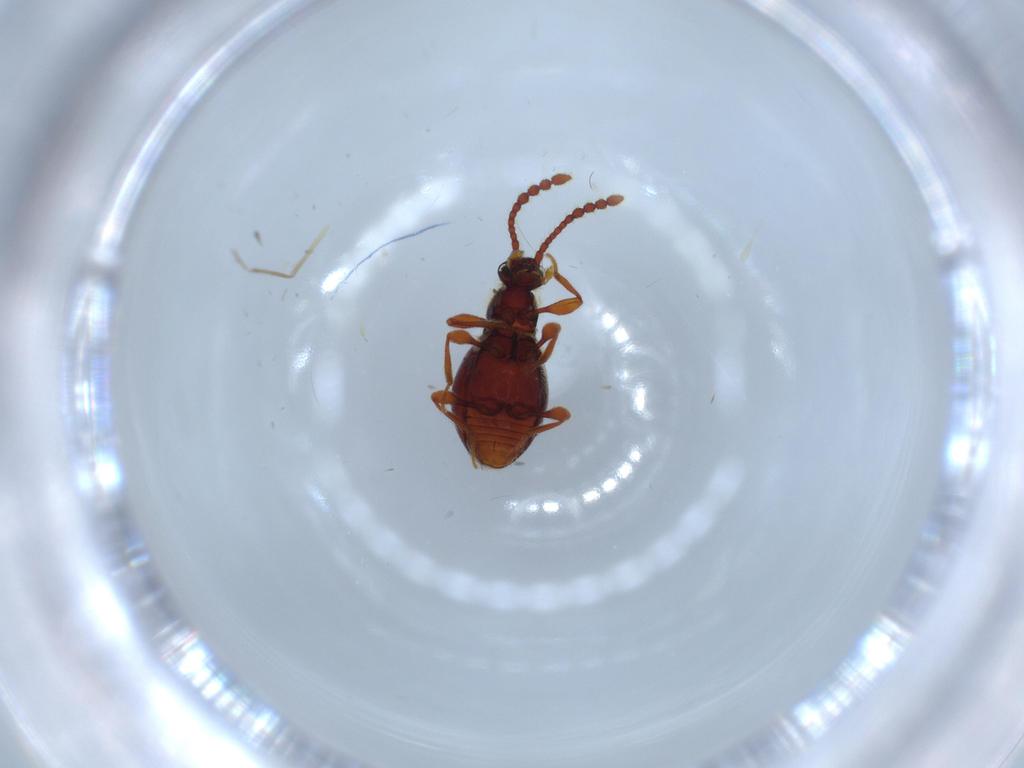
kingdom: Animalia
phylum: Arthropoda
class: Insecta
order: Coleoptera
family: Staphylinidae
